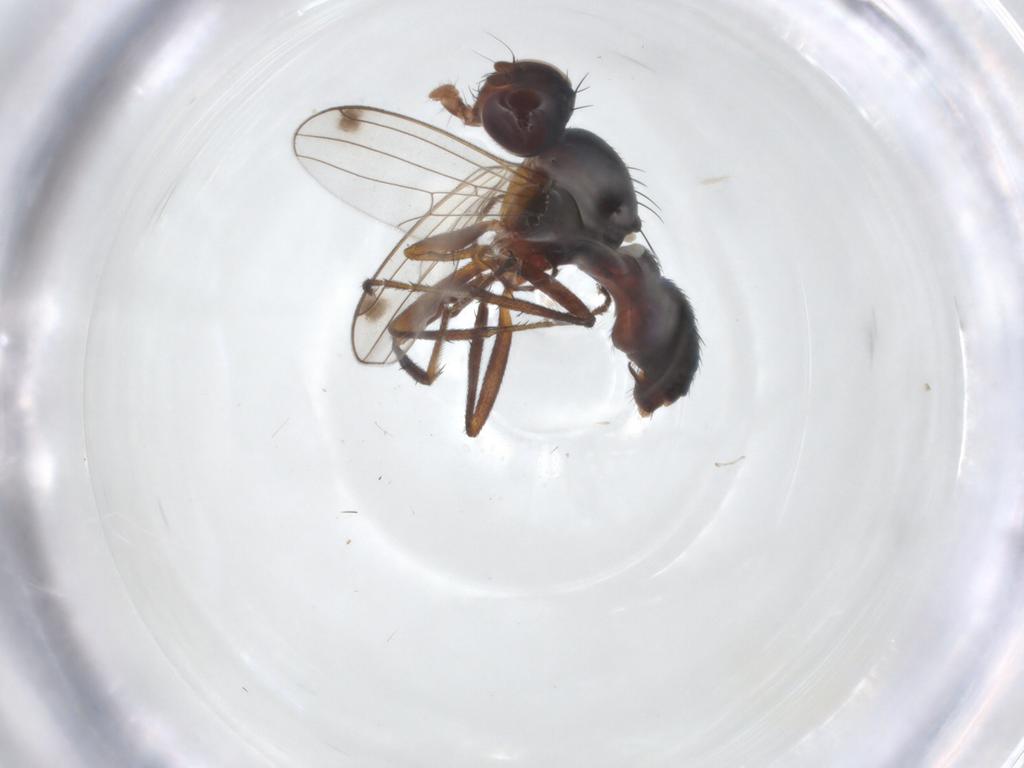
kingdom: Animalia
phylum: Arthropoda
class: Insecta
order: Diptera
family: Sepsidae
